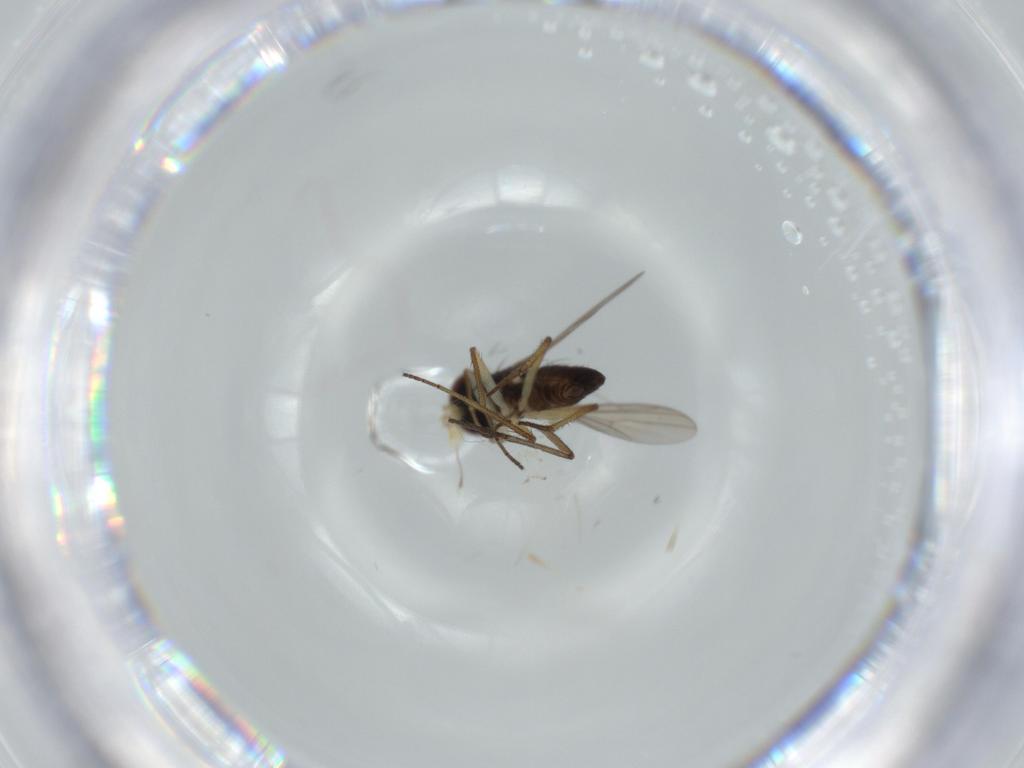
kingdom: Animalia
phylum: Arthropoda
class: Insecta
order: Diptera
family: Dolichopodidae
